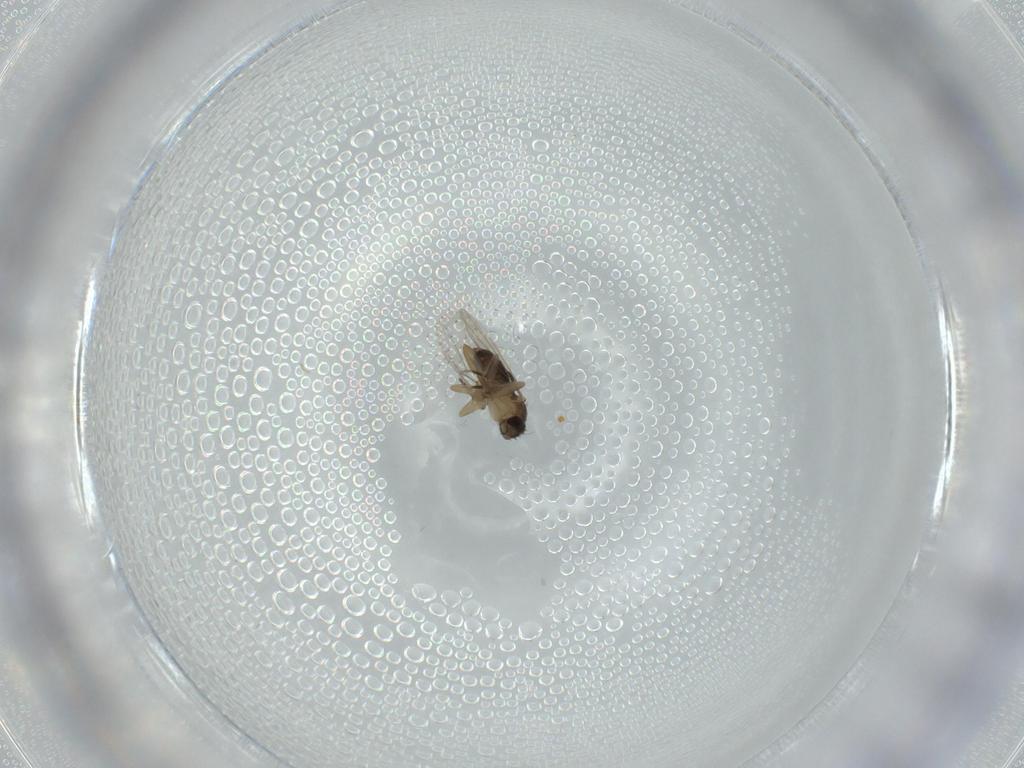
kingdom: Animalia
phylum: Arthropoda
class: Insecta
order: Diptera
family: Phoridae
